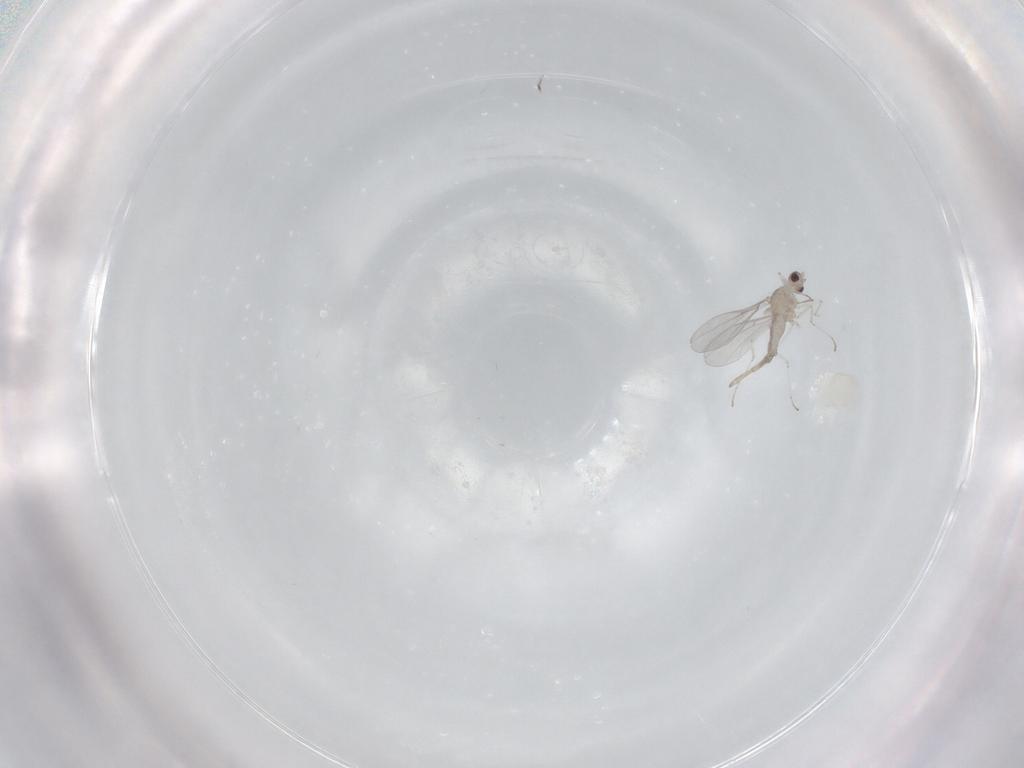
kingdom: Animalia
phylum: Arthropoda
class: Insecta
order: Diptera
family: Cecidomyiidae
